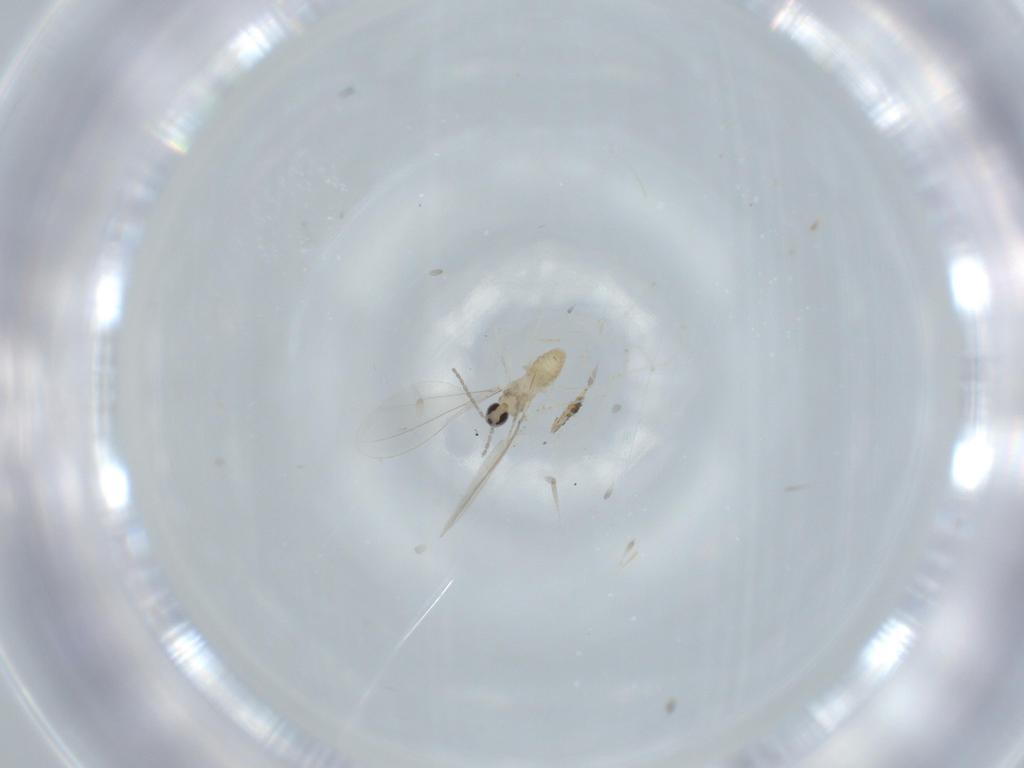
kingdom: Animalia
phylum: Arthropoda
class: Insecta
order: Diptera
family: Cecidomyiidae
